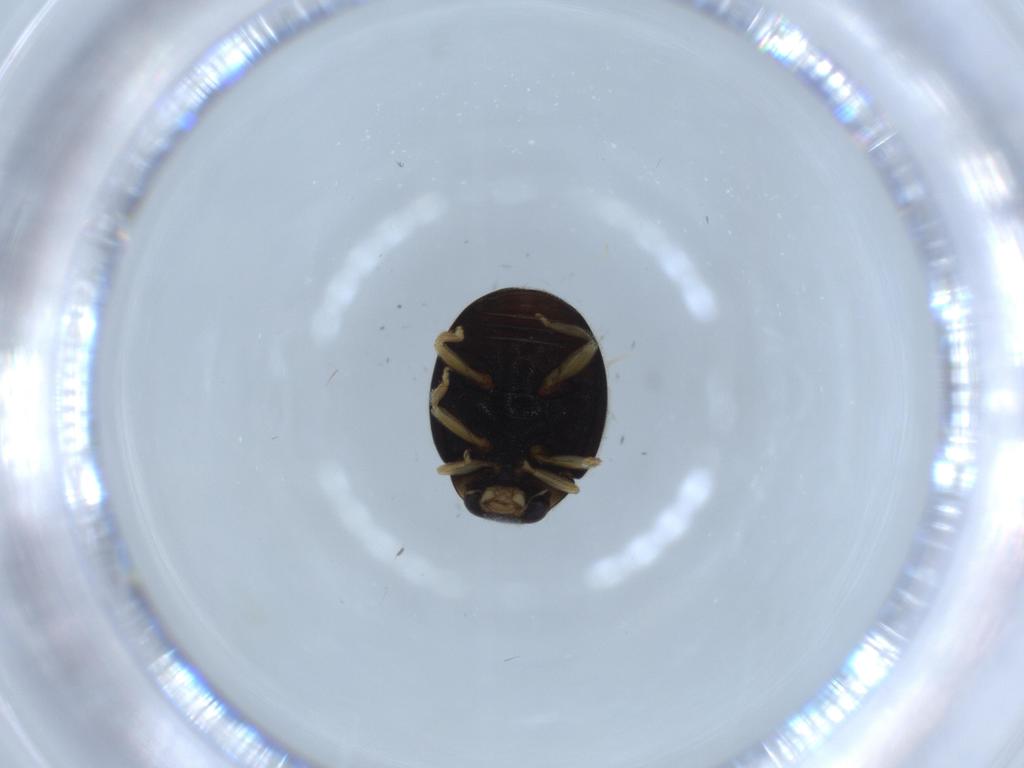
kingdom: Animalia
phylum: Arthropoda
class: Insecta
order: Coleoptera
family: Coccinellidae
